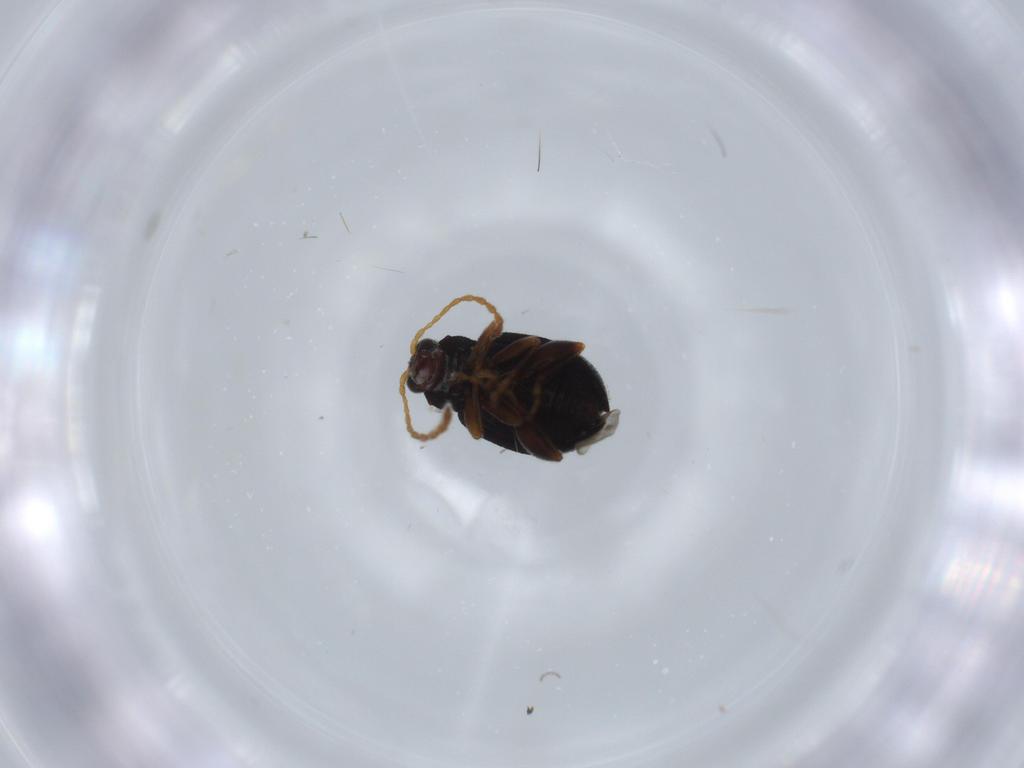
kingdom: Animalia
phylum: Arthropoda
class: Insecta
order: Coleoptera
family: Chrysomelidae
